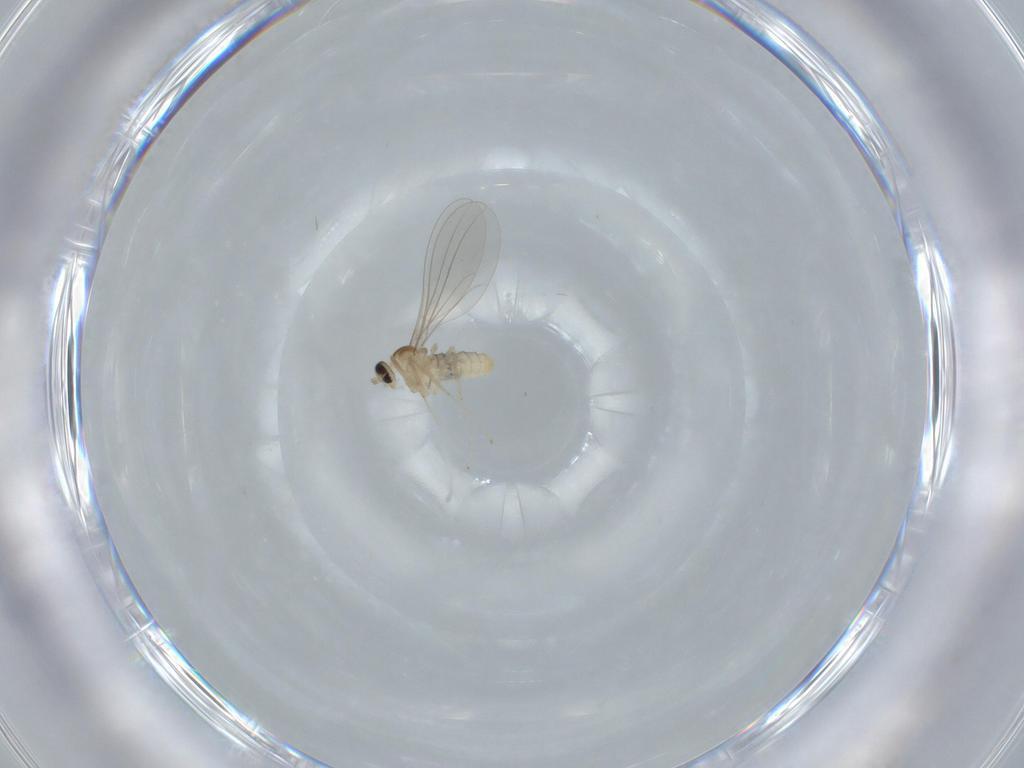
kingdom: Animalia
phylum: Arthropoda
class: Insecta
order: Diptera
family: Cecidomyiidae
